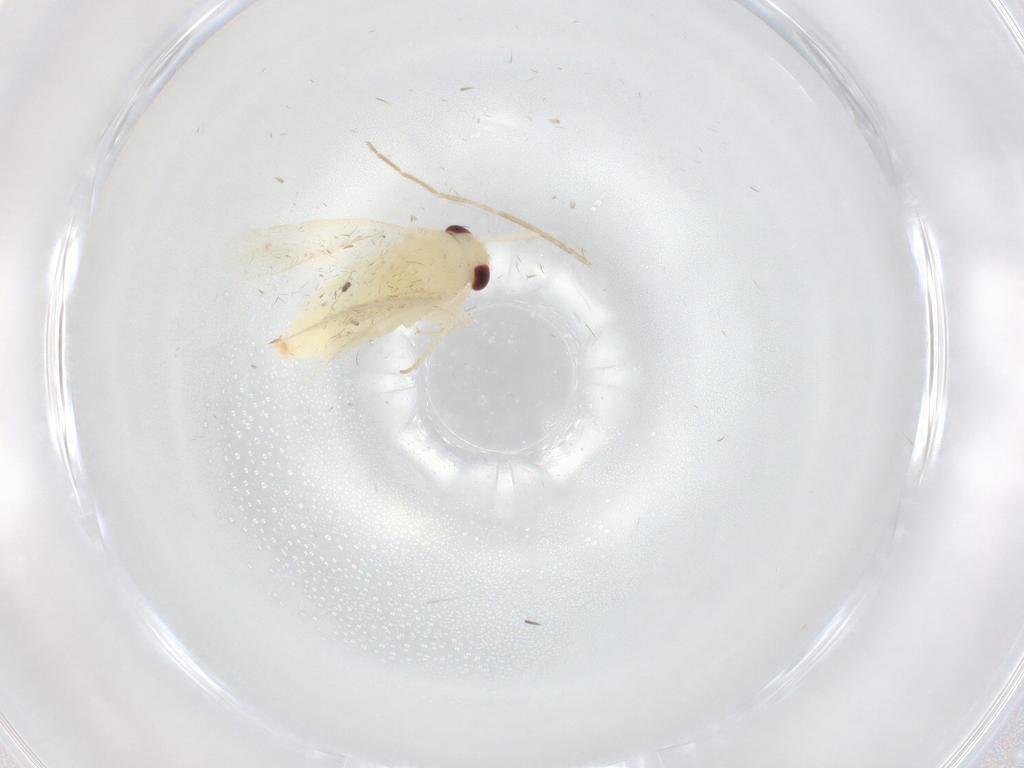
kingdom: Animalia
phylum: Arthropoda
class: Insecta
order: Hemiptera
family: Miridae
